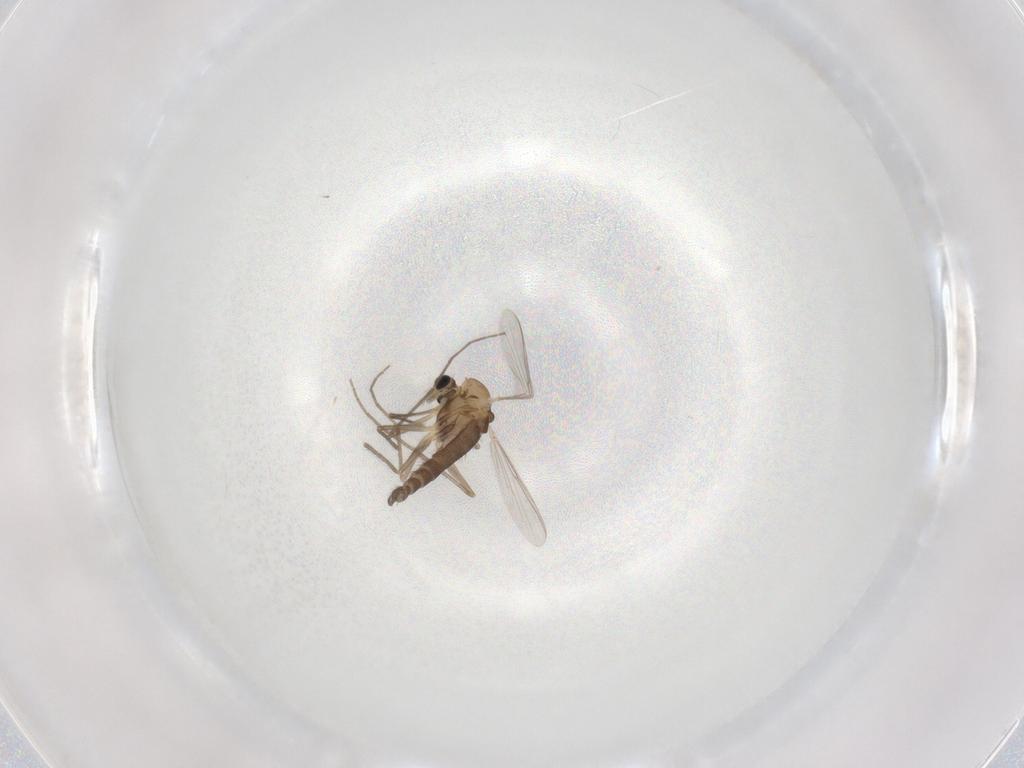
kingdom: Animalia
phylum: Arthropoda
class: Insecta
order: Diptera
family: Chironomidae
